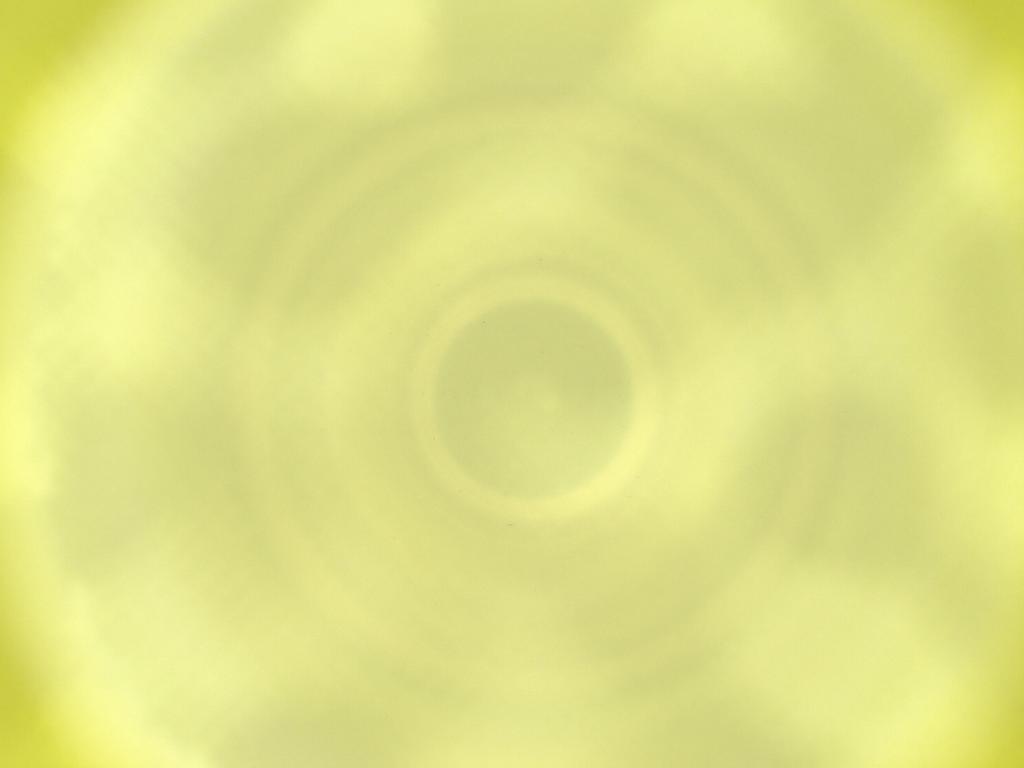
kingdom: Animalia
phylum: Arthropoda
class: Insecta
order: Diptera
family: Cecidomyiidae
